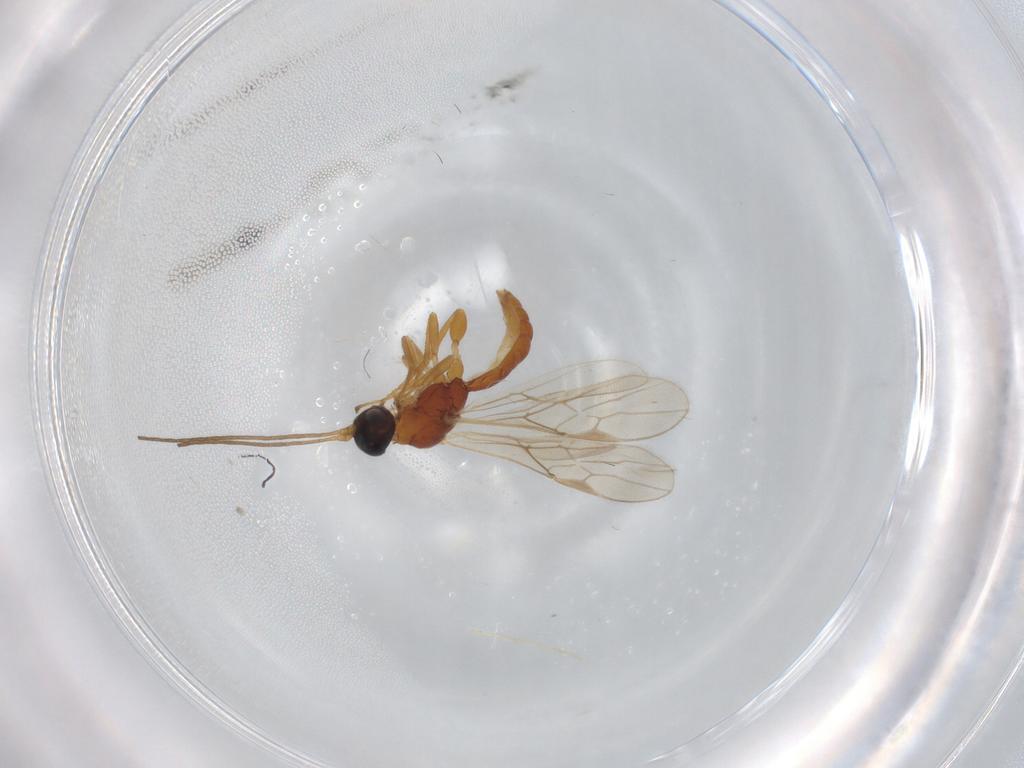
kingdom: Animalia
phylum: Arthropoda
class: Insecta
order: Hymenoptera
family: Braconidae
